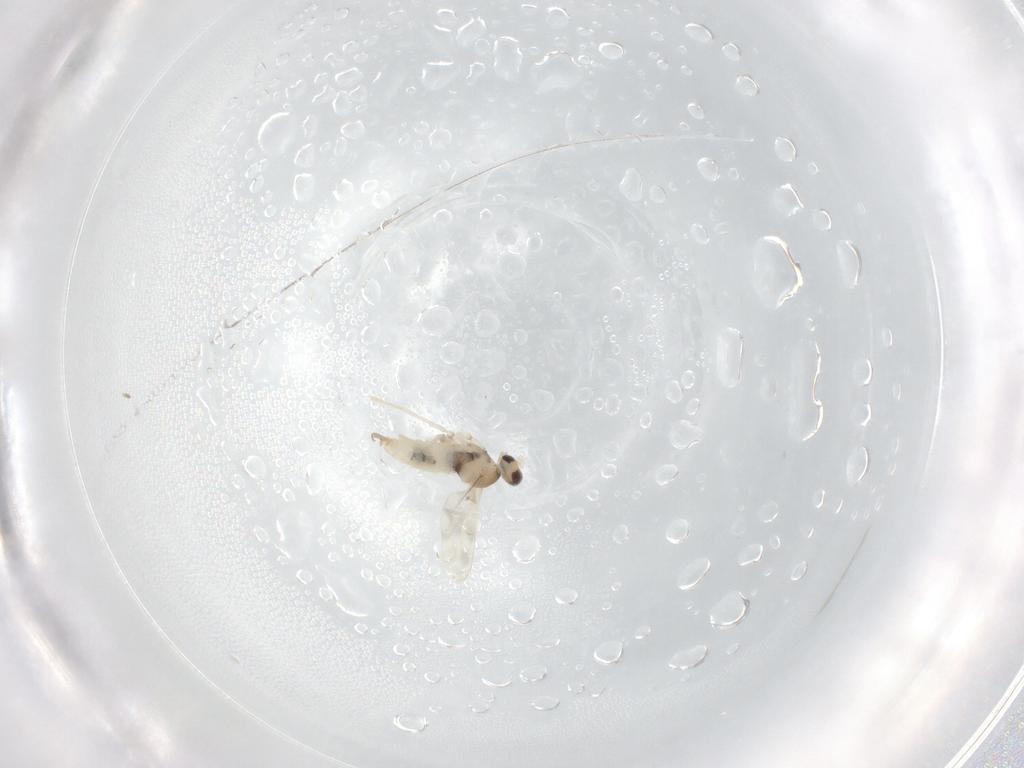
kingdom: Animalia
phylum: Arthropoda
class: Insecta
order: Diptera
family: Cecidomyiidae
